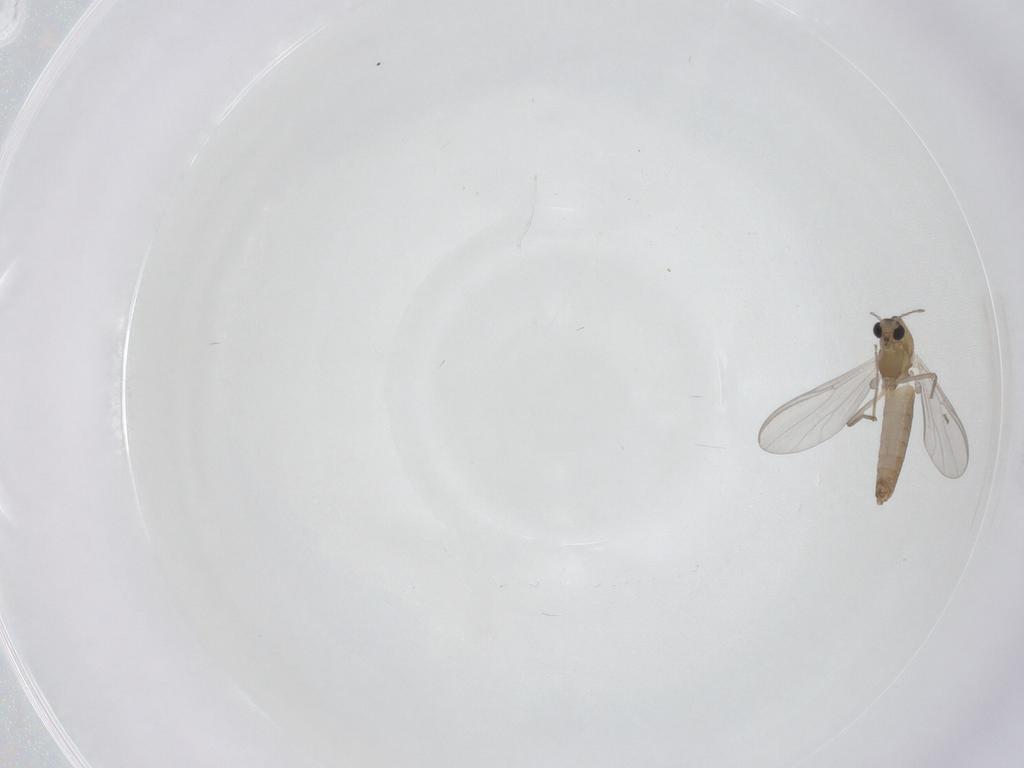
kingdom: Animalia
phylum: Arthropoda
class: Insecta
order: Diptera
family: Chironomidae
